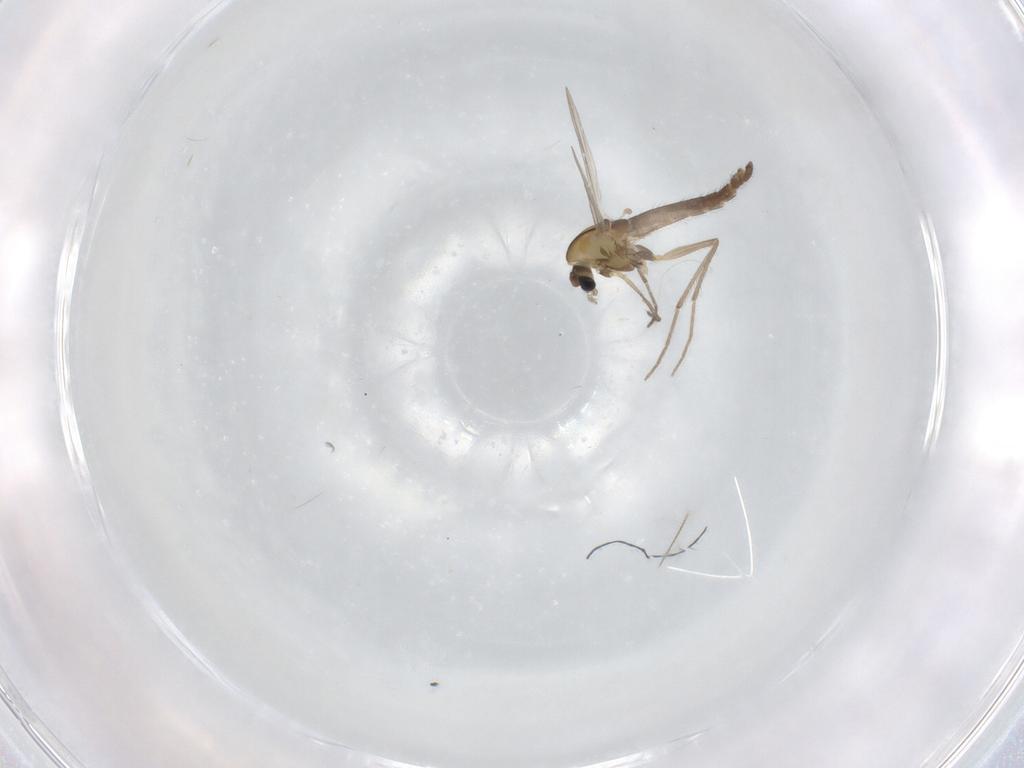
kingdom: Animalia
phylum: Arthropoda
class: Insecta
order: Diptera
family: Chironomidae
